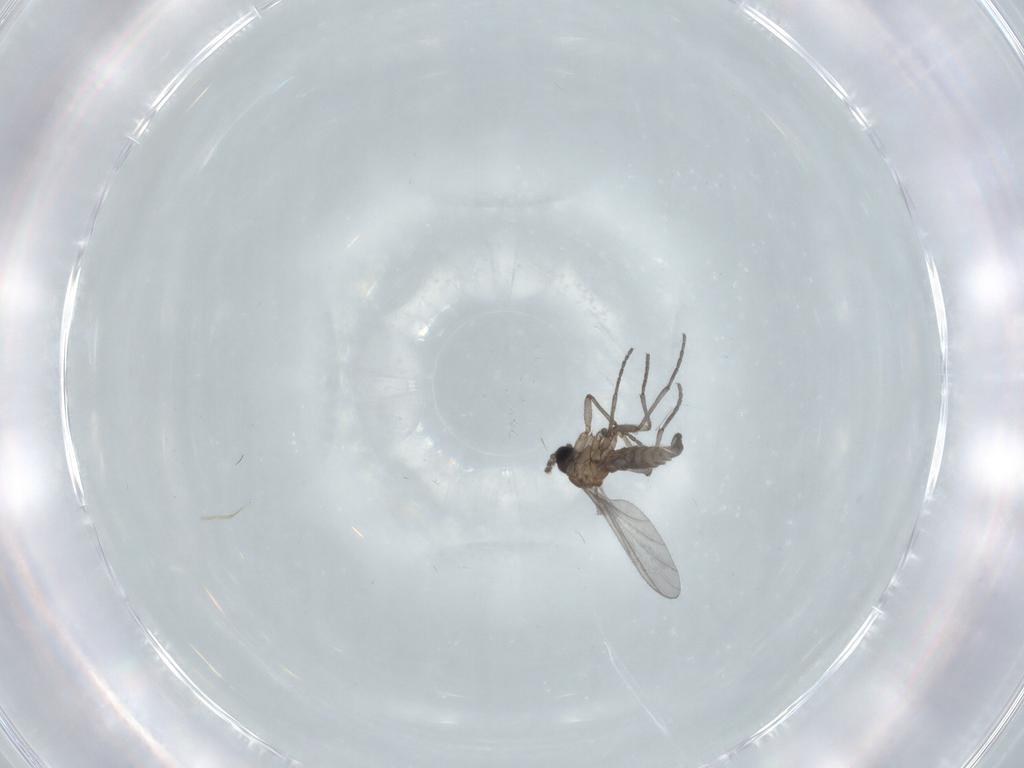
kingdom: Animalia
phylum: Arthropoda
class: Insecta
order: Diptera
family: Sciaridae
